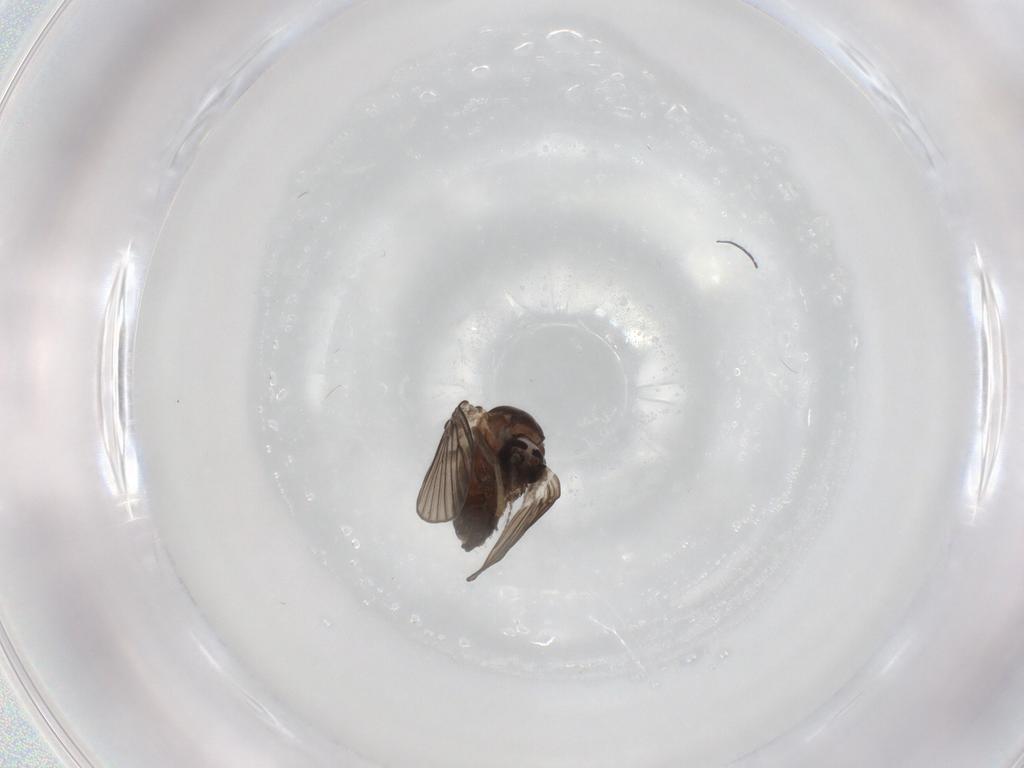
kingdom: Animalia
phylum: Arthropoda
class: Insecta
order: Diptera
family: Psychodidae
